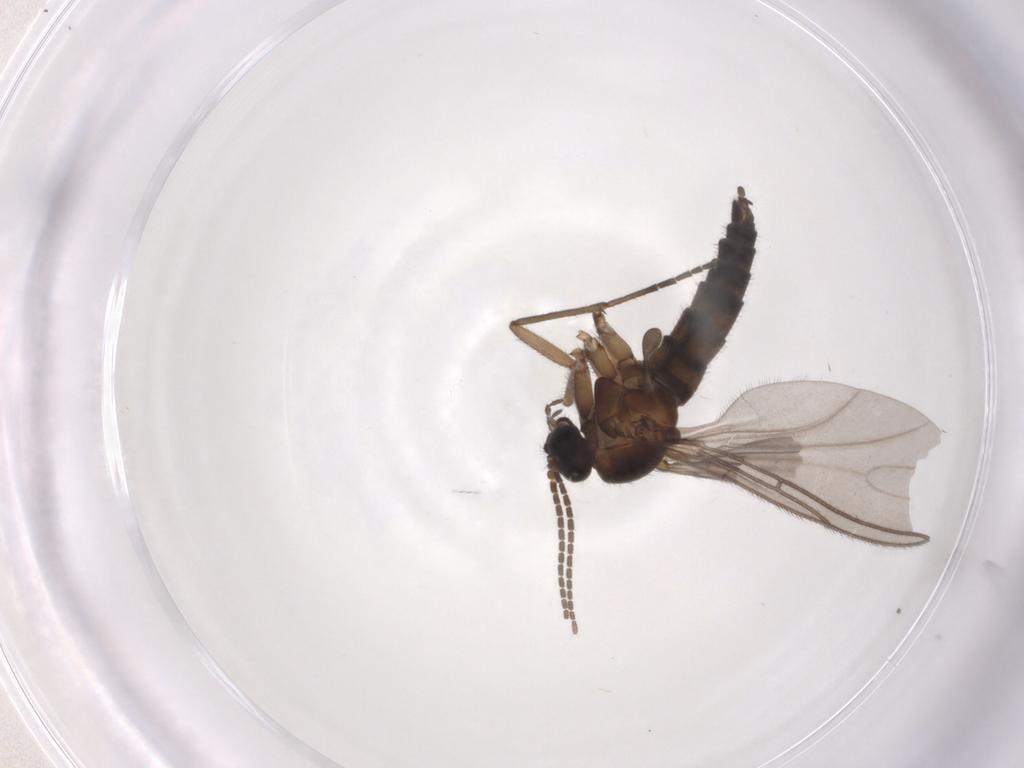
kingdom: Animalia
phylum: Arthropoda
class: Insecta
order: Diptera
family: Sciaridae
